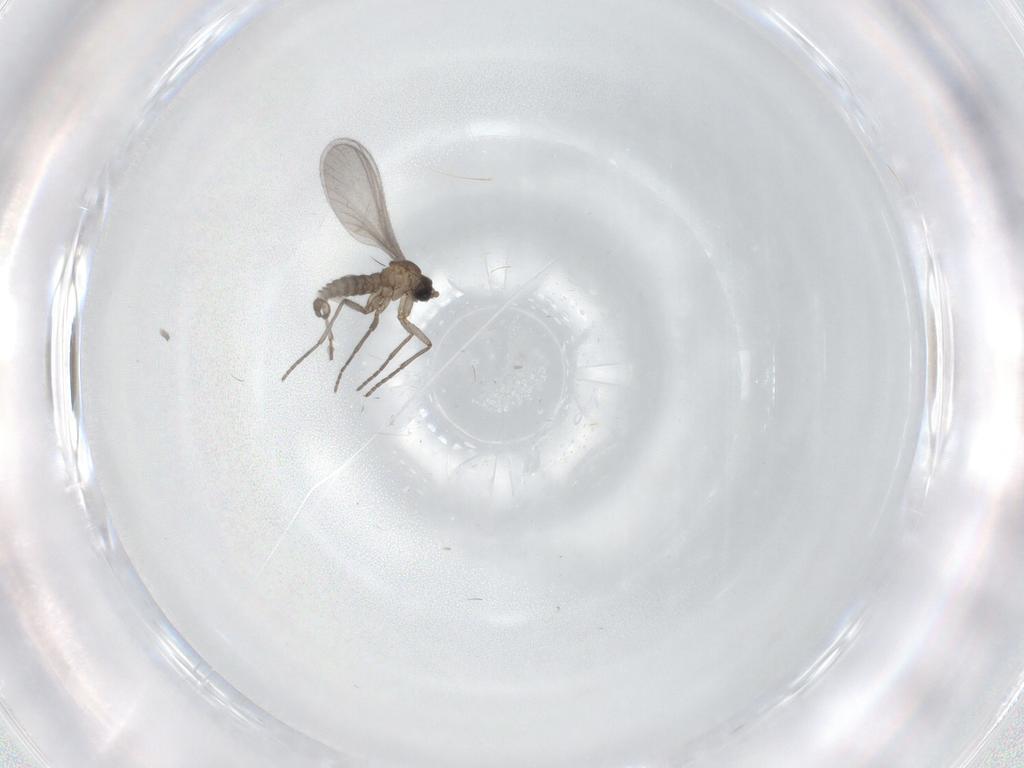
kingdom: Animalia
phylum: Arthropoda
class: Insecta
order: Diptera
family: Sciaridae
